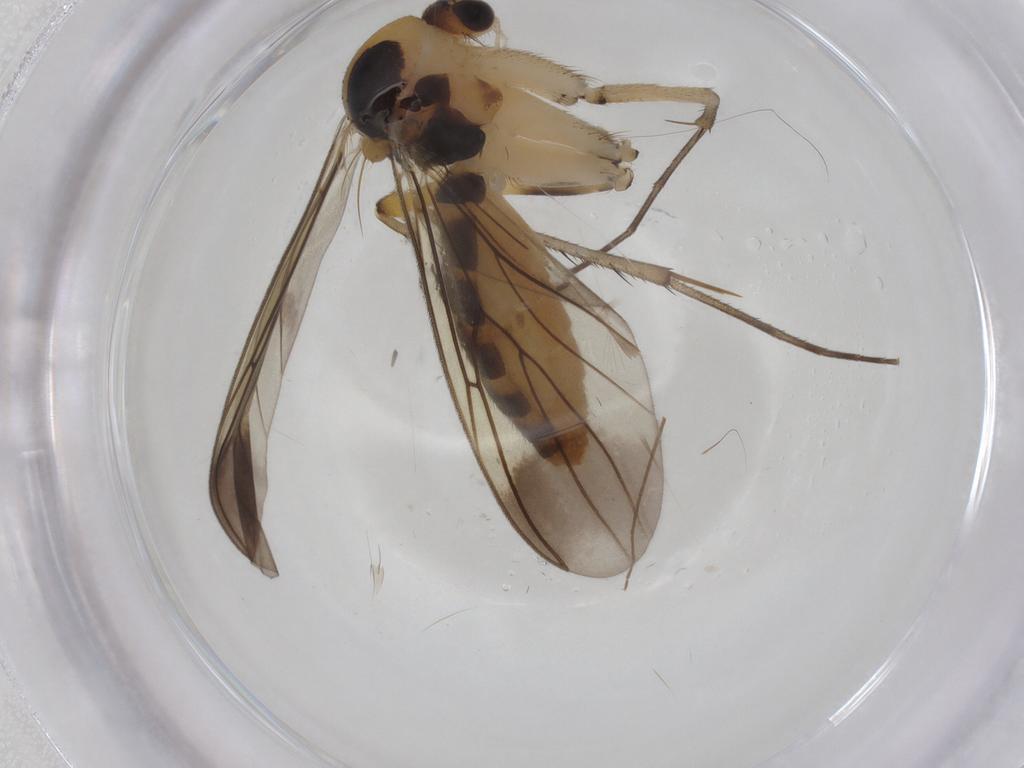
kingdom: Animalia
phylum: Arthropoda
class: Insecta
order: Diptera
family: Mycetophilidae
